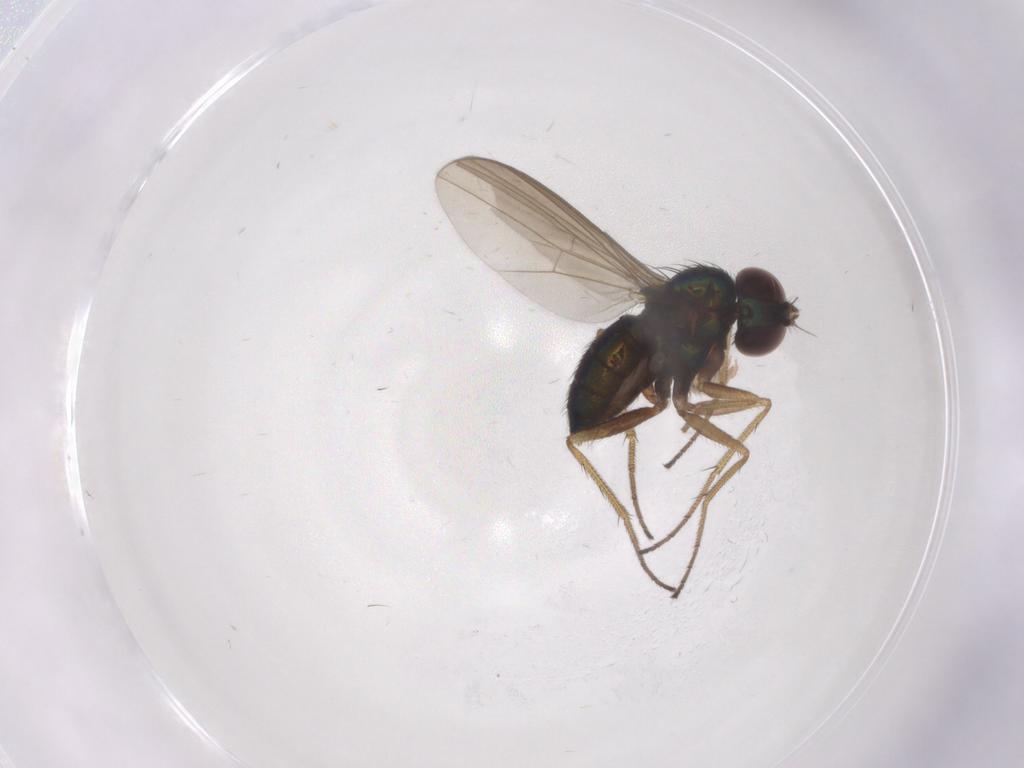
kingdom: Animalia
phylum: Arthropoda
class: Insecta
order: Diptera
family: Dolichopodidae
